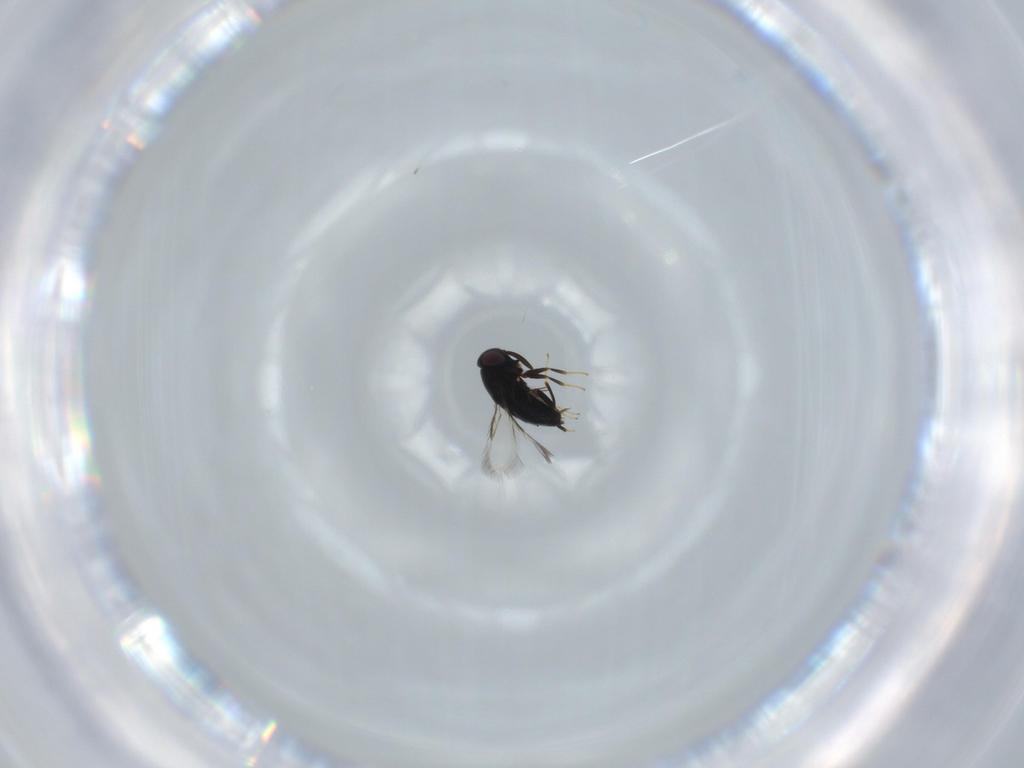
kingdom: Animalia
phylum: Arthropoda
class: Insecta
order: Hymenoptera
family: Signiphoridae
